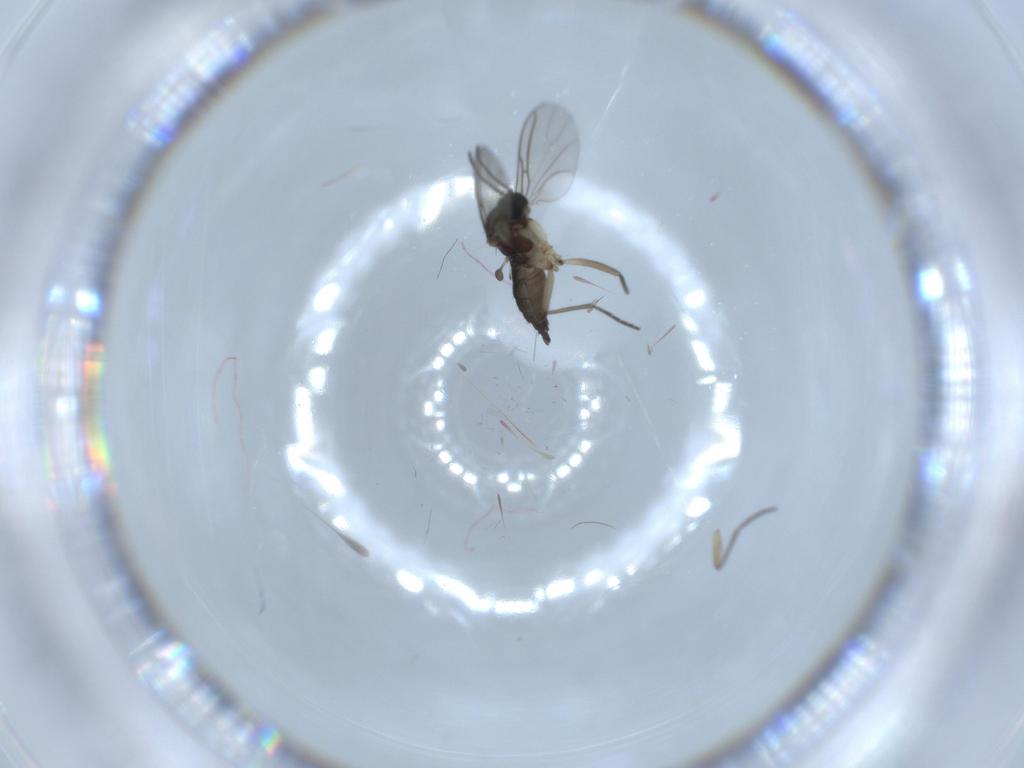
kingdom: Animalia
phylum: Arthropoda
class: Insecta
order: Diptera
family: Sciaridae
